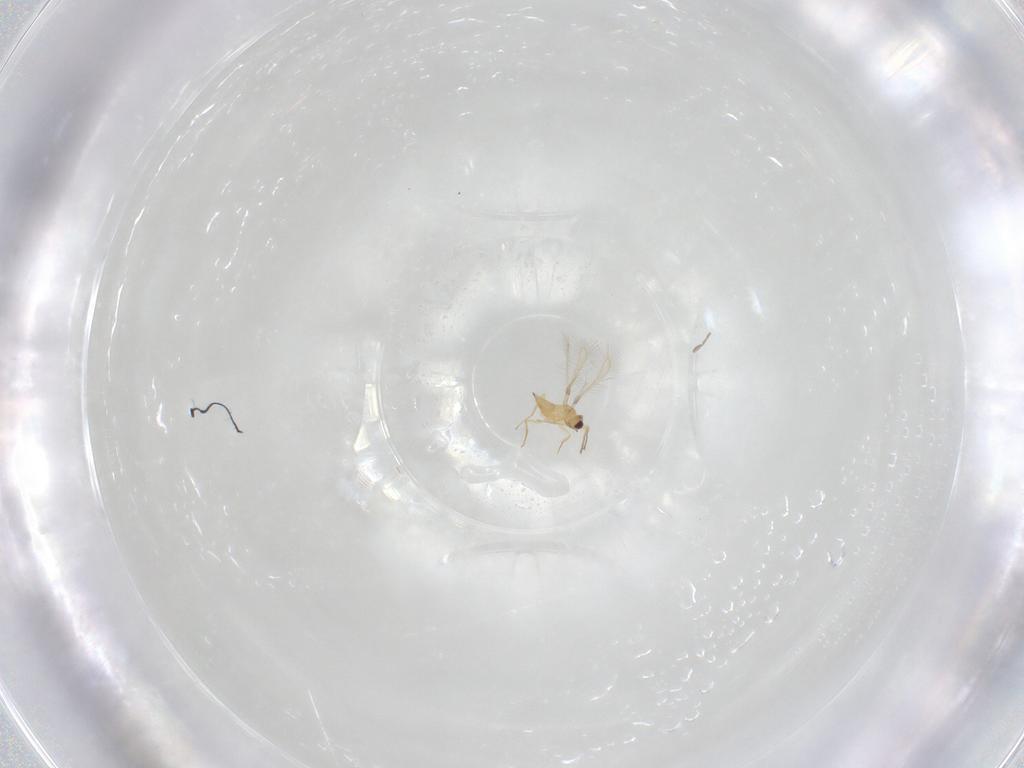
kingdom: Animalia
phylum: Arthropoda
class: Insecta
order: Hymenoptera
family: Mymaridae
